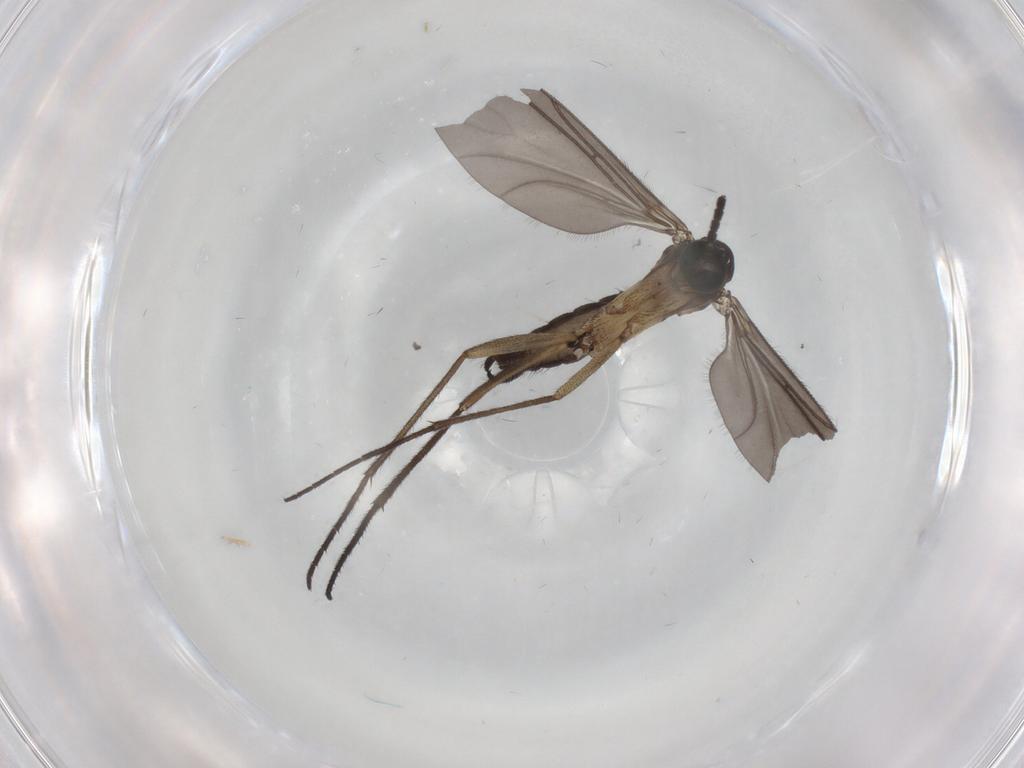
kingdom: Animalia
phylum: Arthropoda
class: Insecta
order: Diptera
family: Sciaridae
